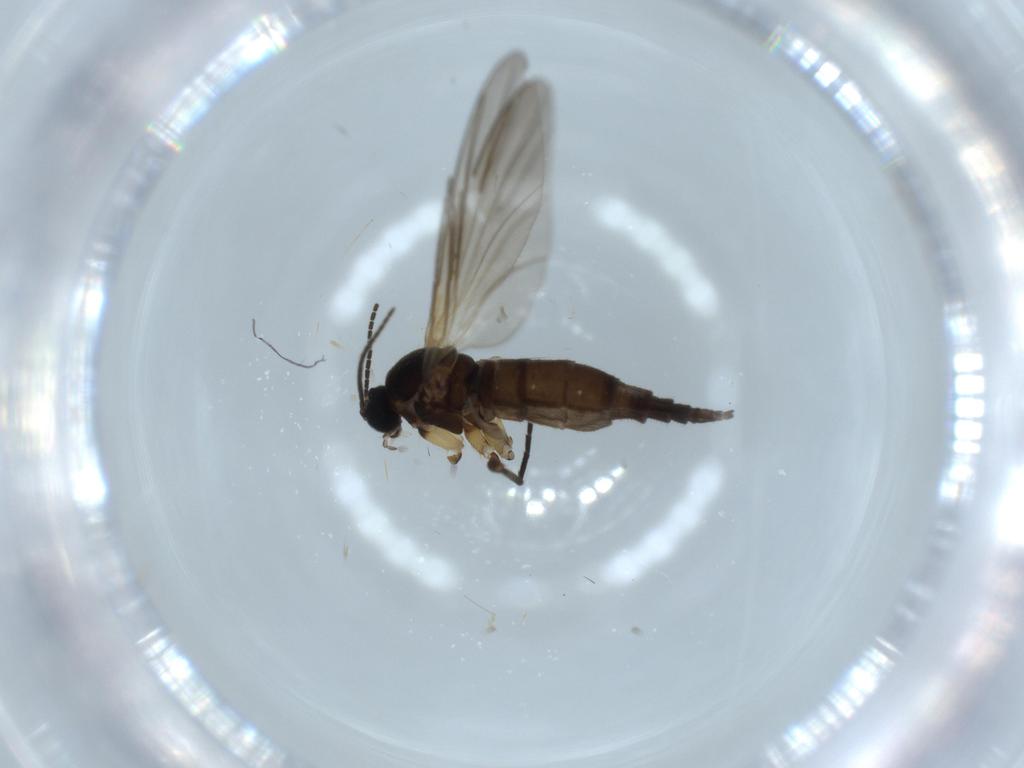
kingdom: Animalia
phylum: Arthropoda
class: Insecta
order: Diptera
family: Sciaridae
